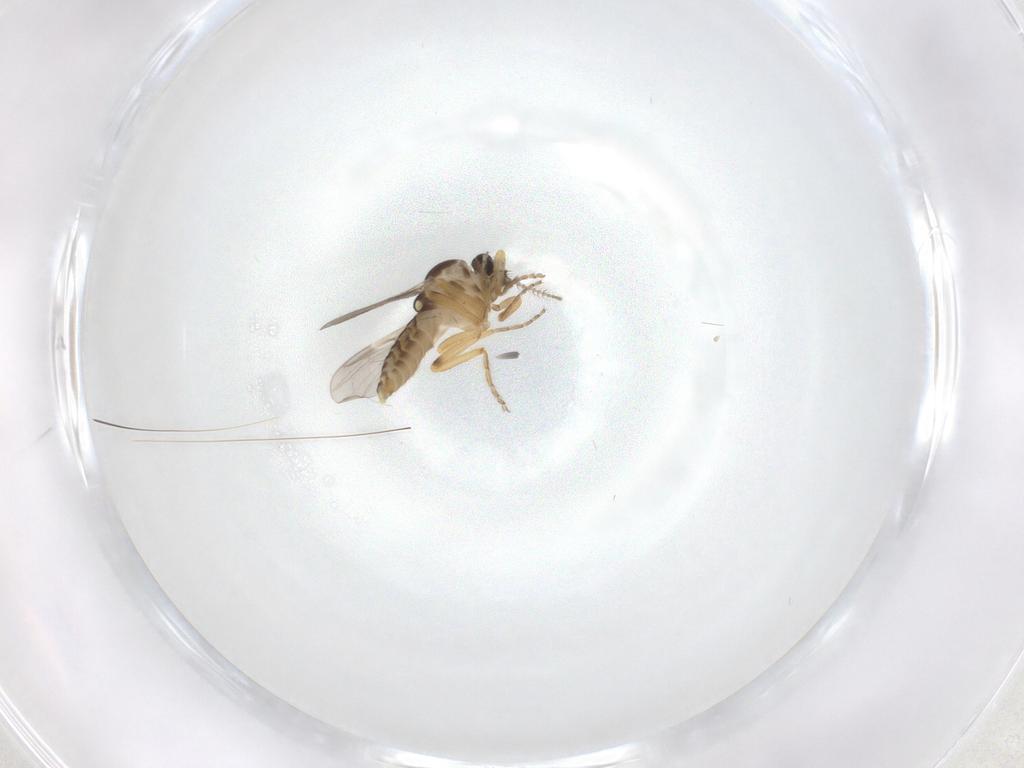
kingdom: Animalia
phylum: Arthropoda
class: Insecta
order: Diptera
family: Ceratopogonidae
